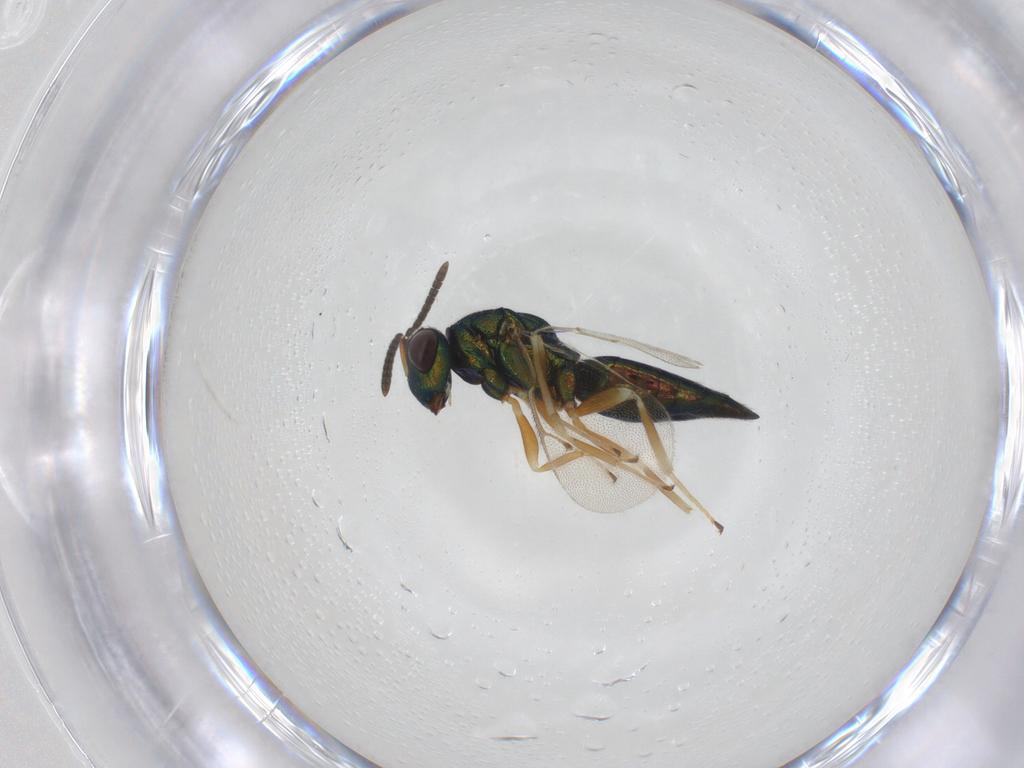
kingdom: Animalia
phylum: Arthropoda
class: Insecta
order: Hymenoptera
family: Pteromalidae
